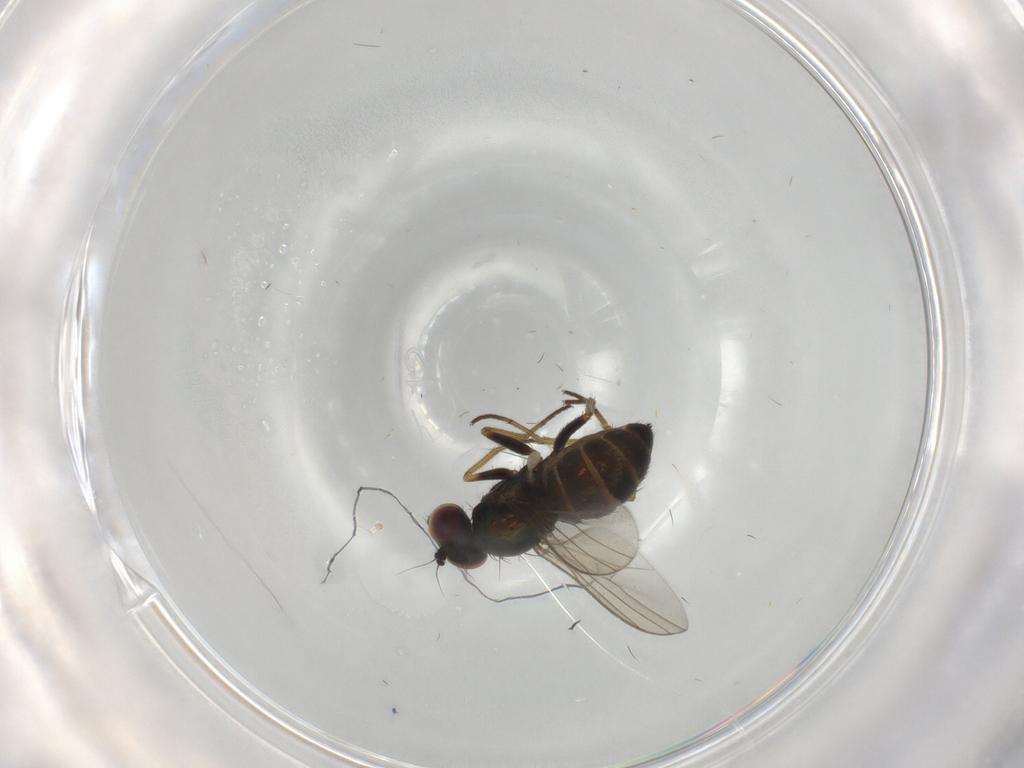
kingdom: Animalia
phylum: Arthropoda
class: Insecta
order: Diptera
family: Dolichopodidae
